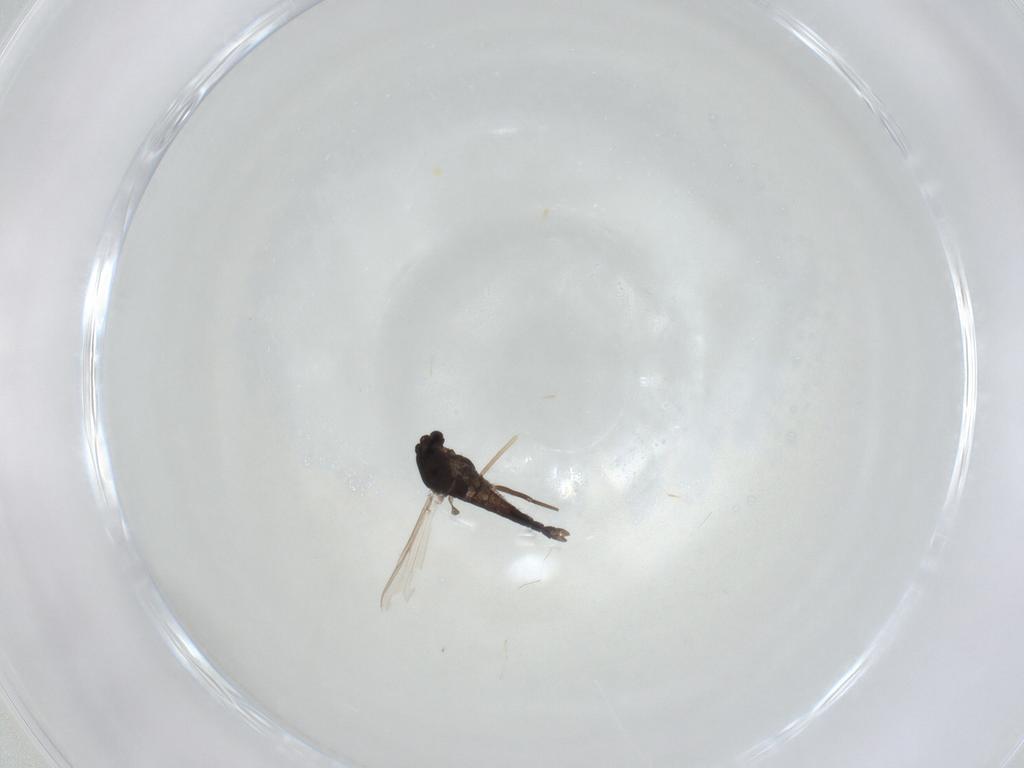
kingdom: Animalia
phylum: Arthropoda
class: Insecta
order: Diptera
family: Chironomidae
